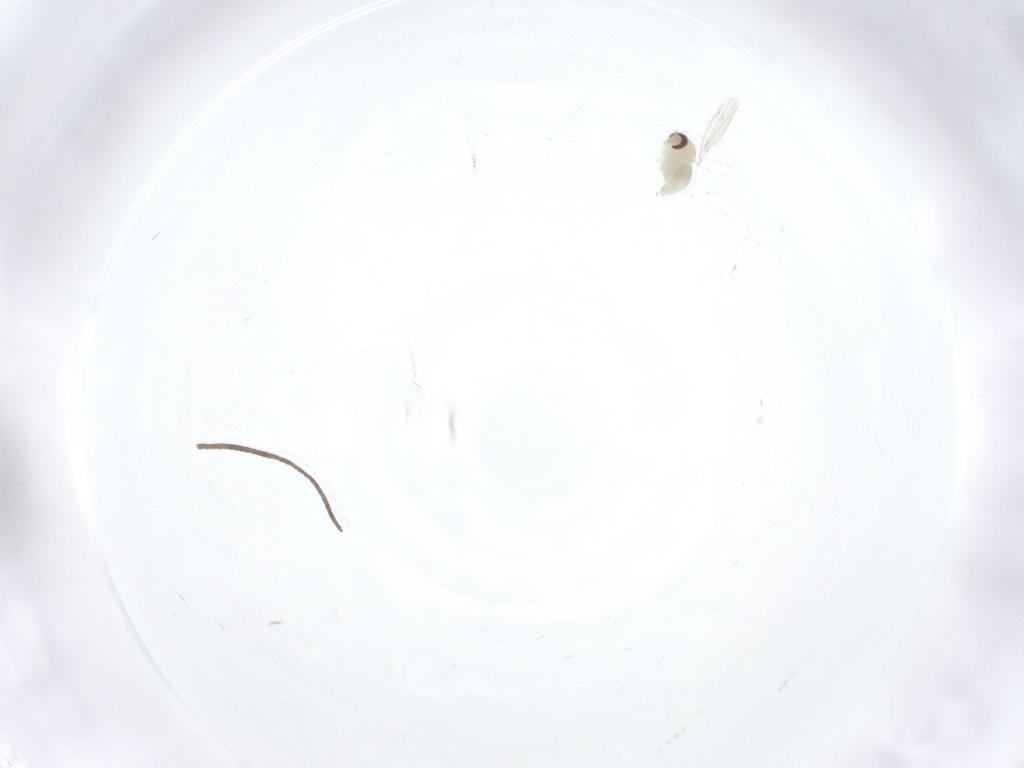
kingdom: Animalia
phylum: Arthropoda
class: Insecta
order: Diptera
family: Cecidomyiidae
